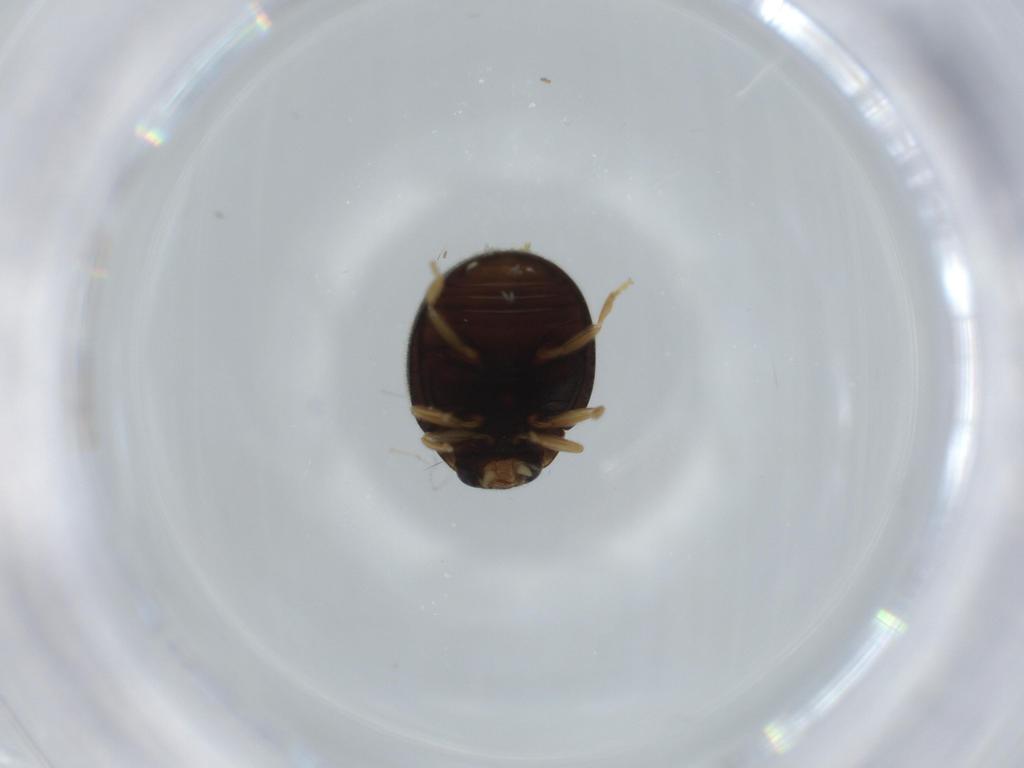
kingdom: Animalia
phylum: Arthropoda
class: Insecta
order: Coleoptera
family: Coccinellidae
